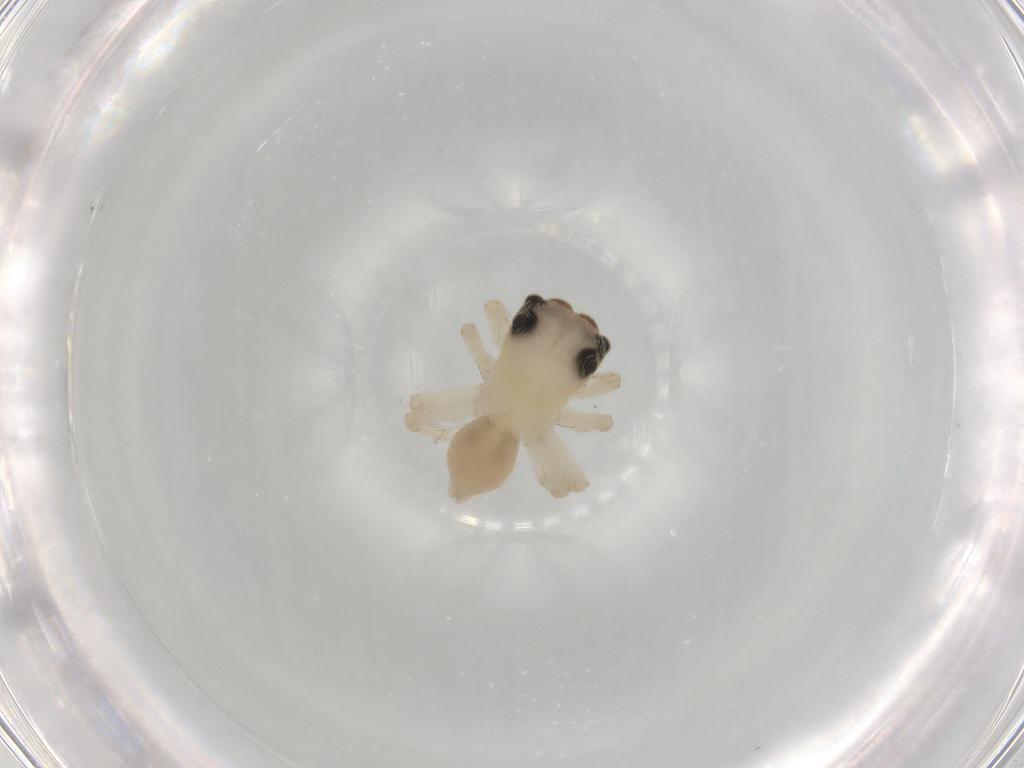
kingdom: Animalia
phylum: Arthropoda
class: Arachnida
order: Araneae
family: Salticidae
